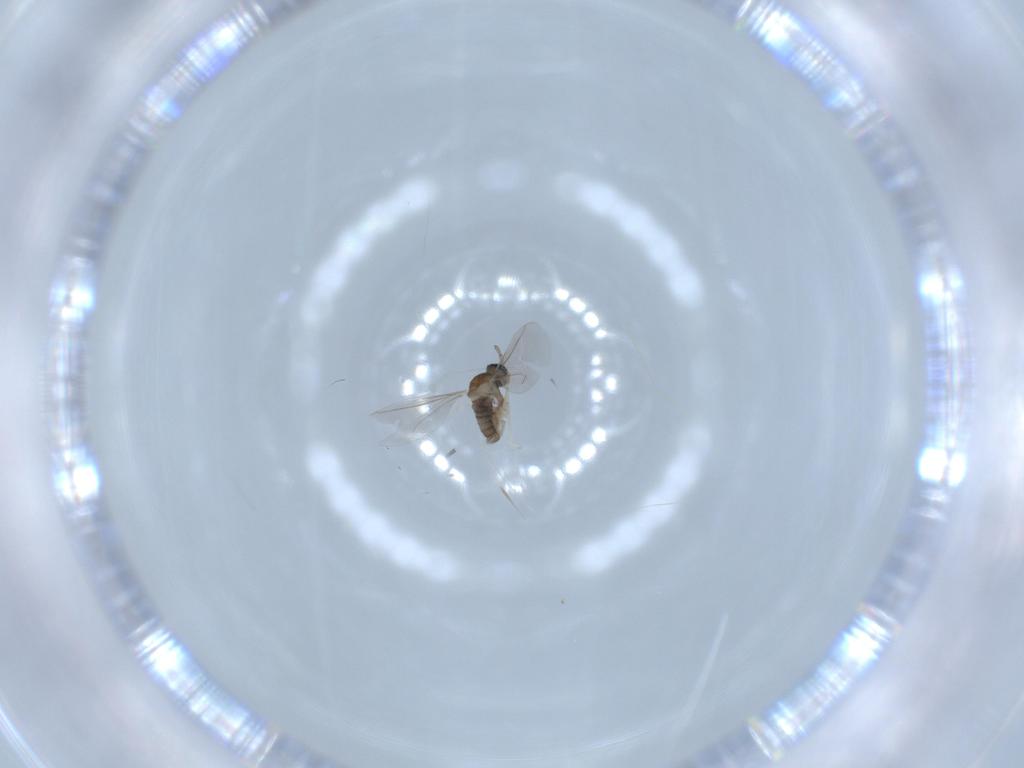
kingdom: Animalia
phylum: Arthropoda
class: Insecta
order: Diptera
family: Cecidomyiidae
